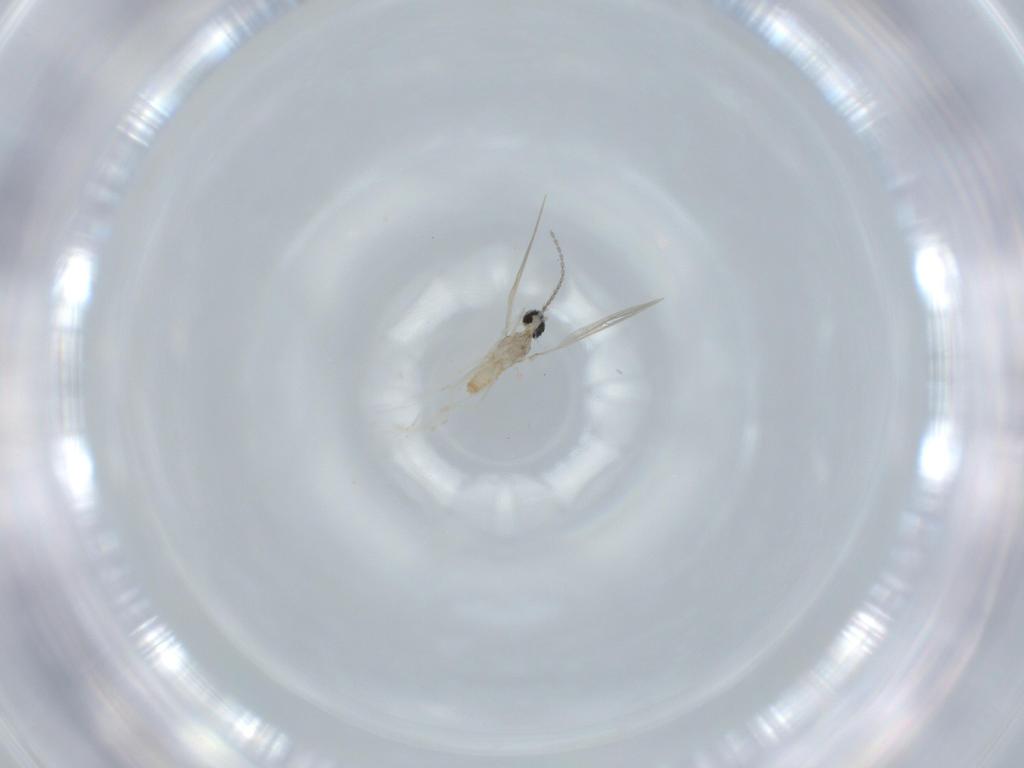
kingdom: Animalia
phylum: Arthropoda
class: Insecta
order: Diptera
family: Cecidomyiidae
